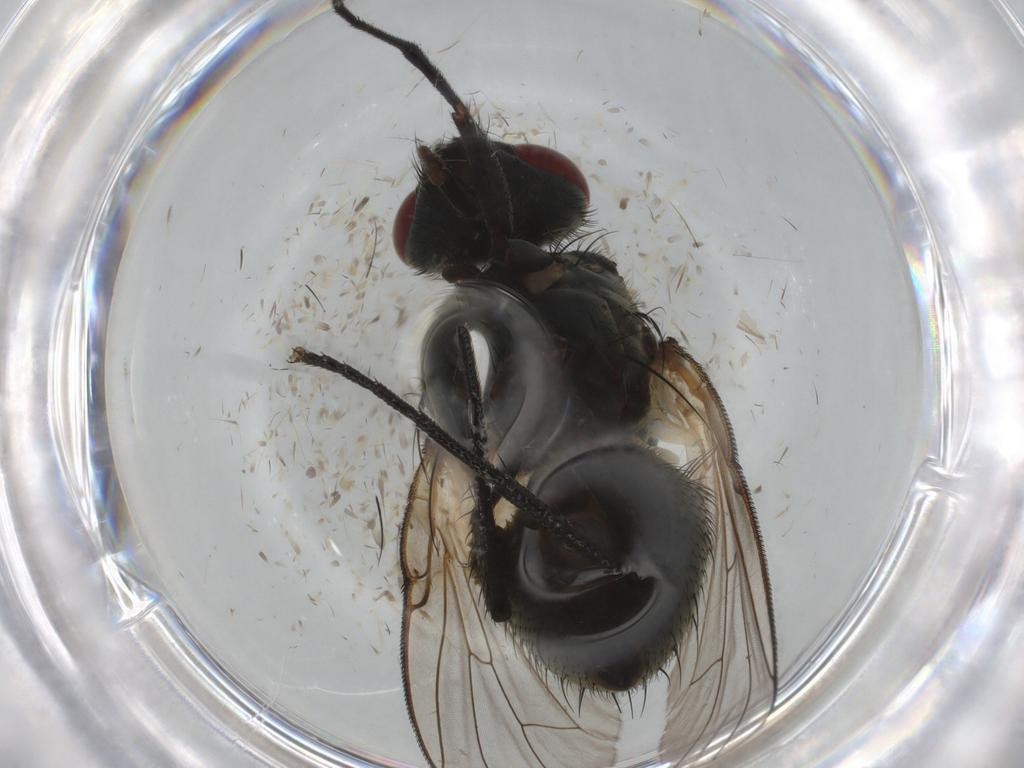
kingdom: Animalia
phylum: Arthropoda
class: Insecta
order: Diptera
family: Muscidae
